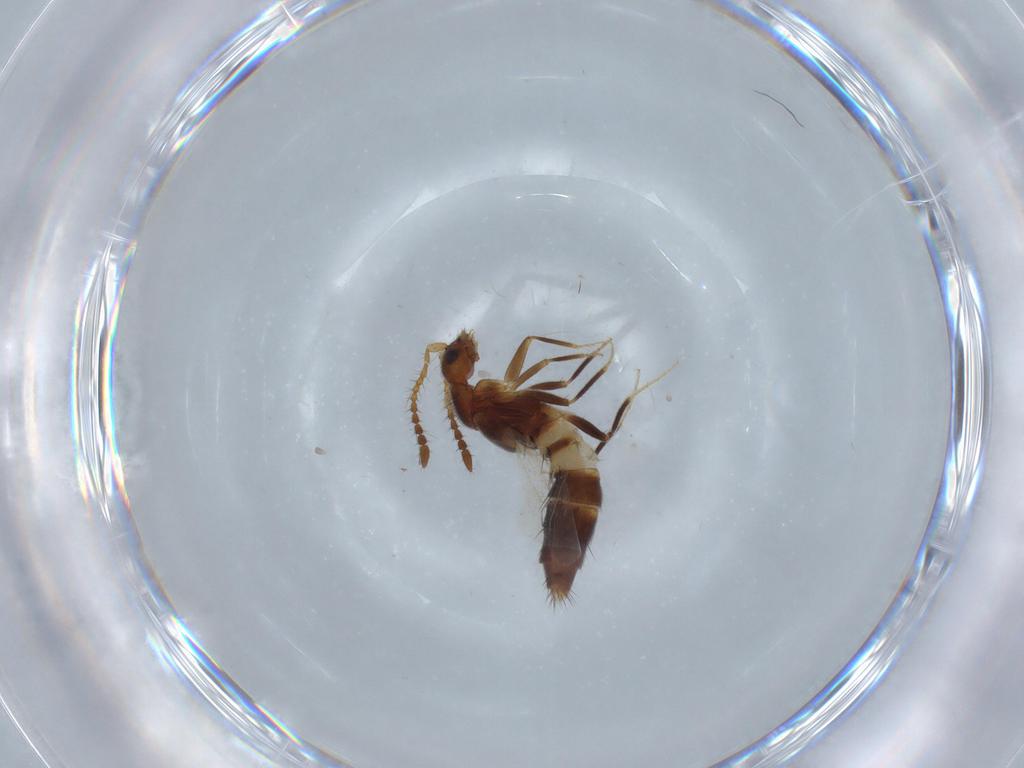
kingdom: Animalia
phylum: Arthropoda
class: Insecta
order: Coleoptera
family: Staphylinidae
